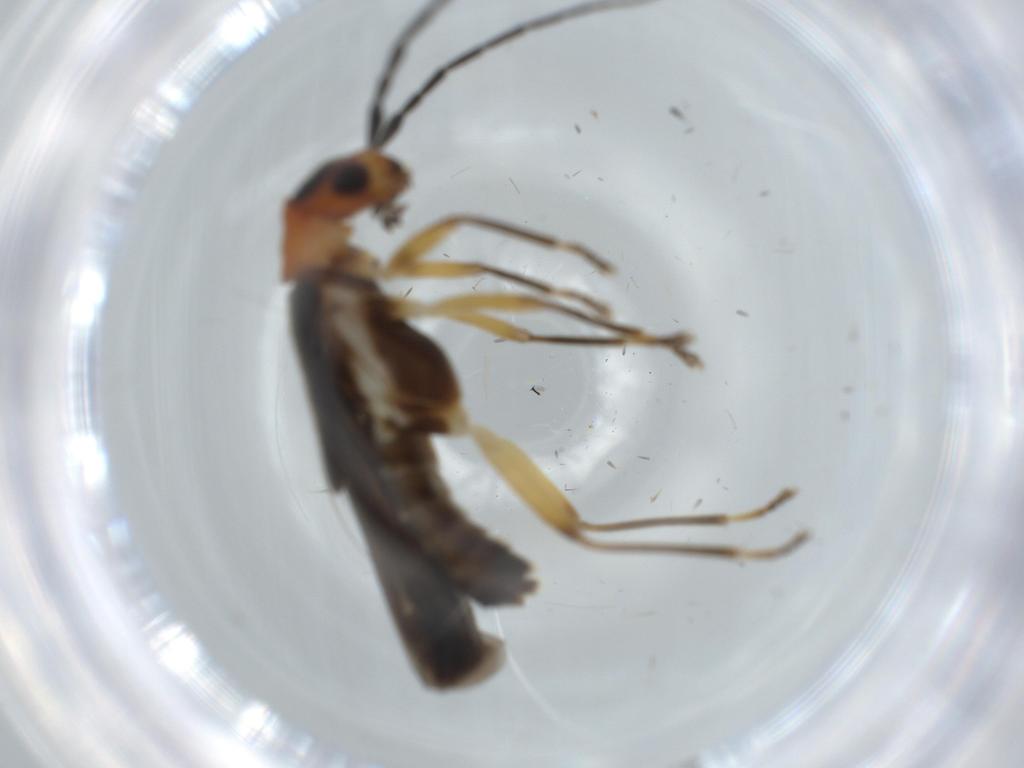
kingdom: Animalia
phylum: Arthropoda
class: Insecta
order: Coleoptera
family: Cantharidae
